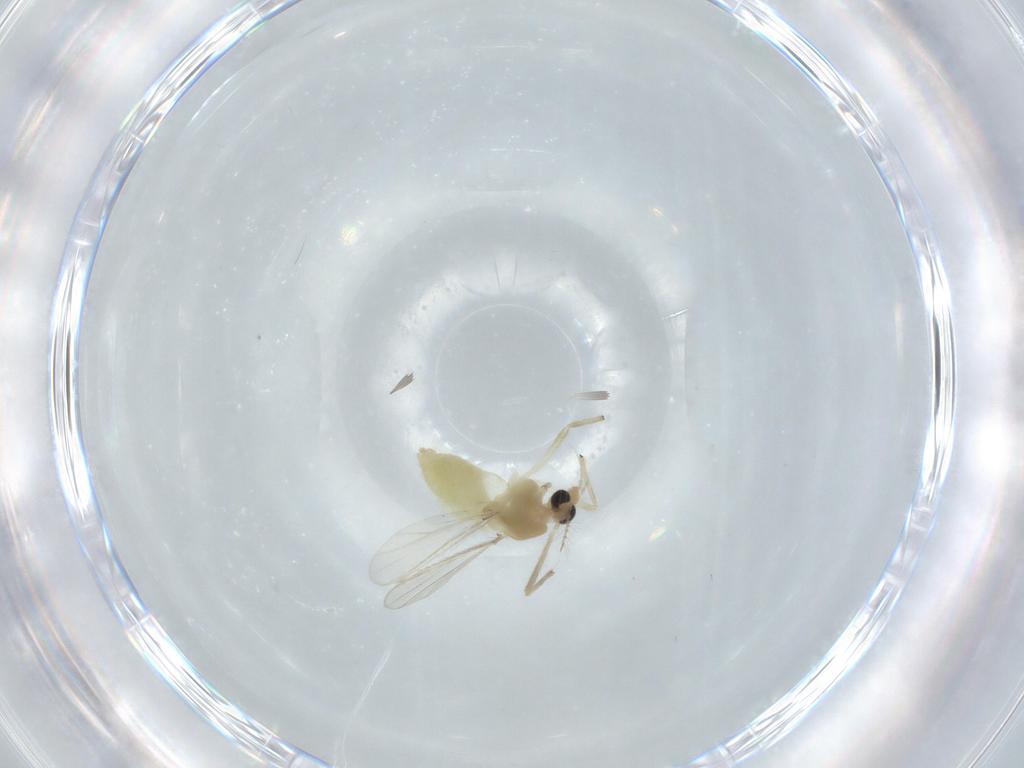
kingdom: Animalia
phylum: Arthropoda
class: Insecta
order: Diptera
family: Chironomidae
